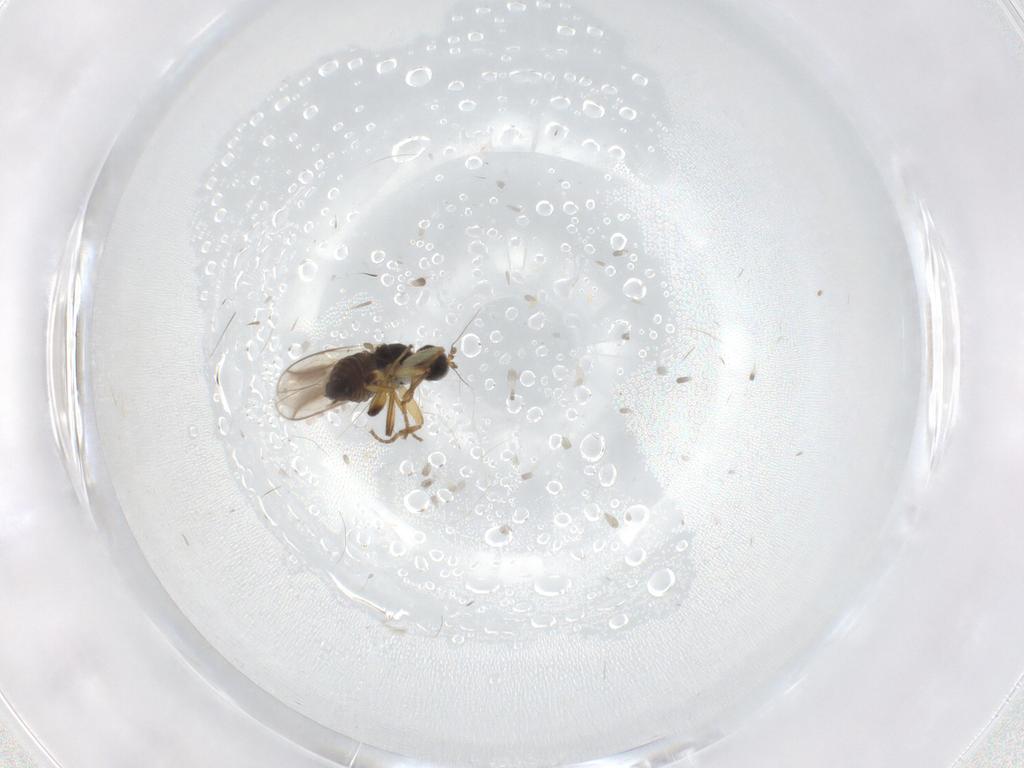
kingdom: Animalia
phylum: Arthropoda
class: Insecta
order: Diptera
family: Hybotidae
